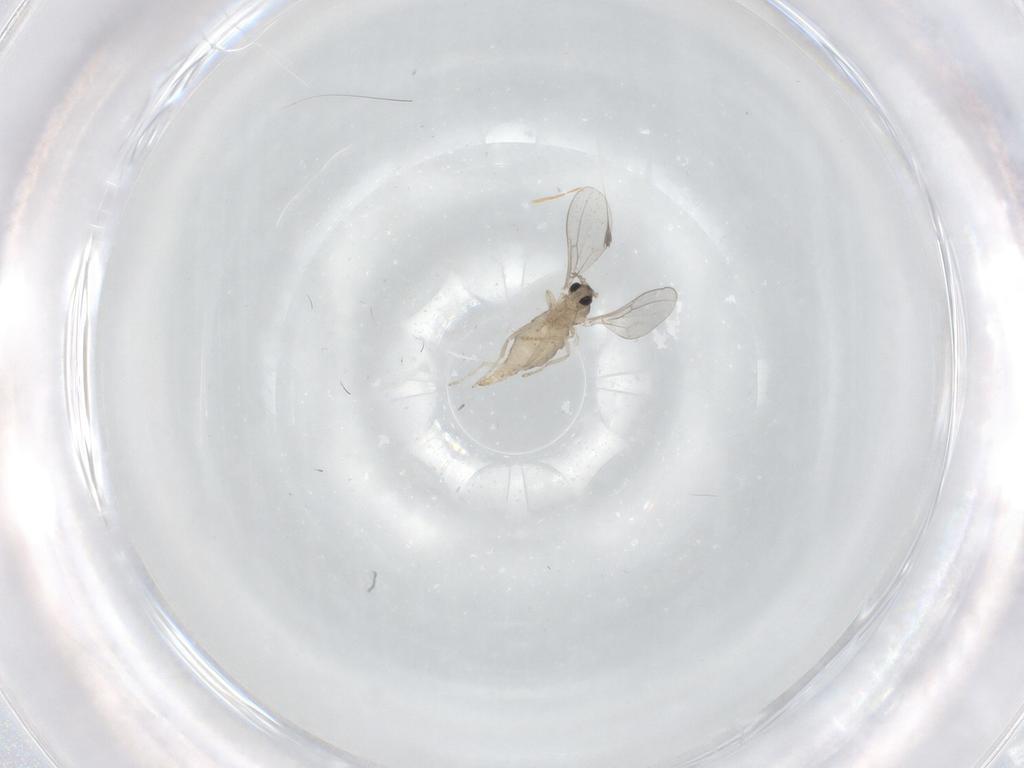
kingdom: Animalia
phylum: Arthropoda
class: Insecta
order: Diptera
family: Cecidomyiidae
